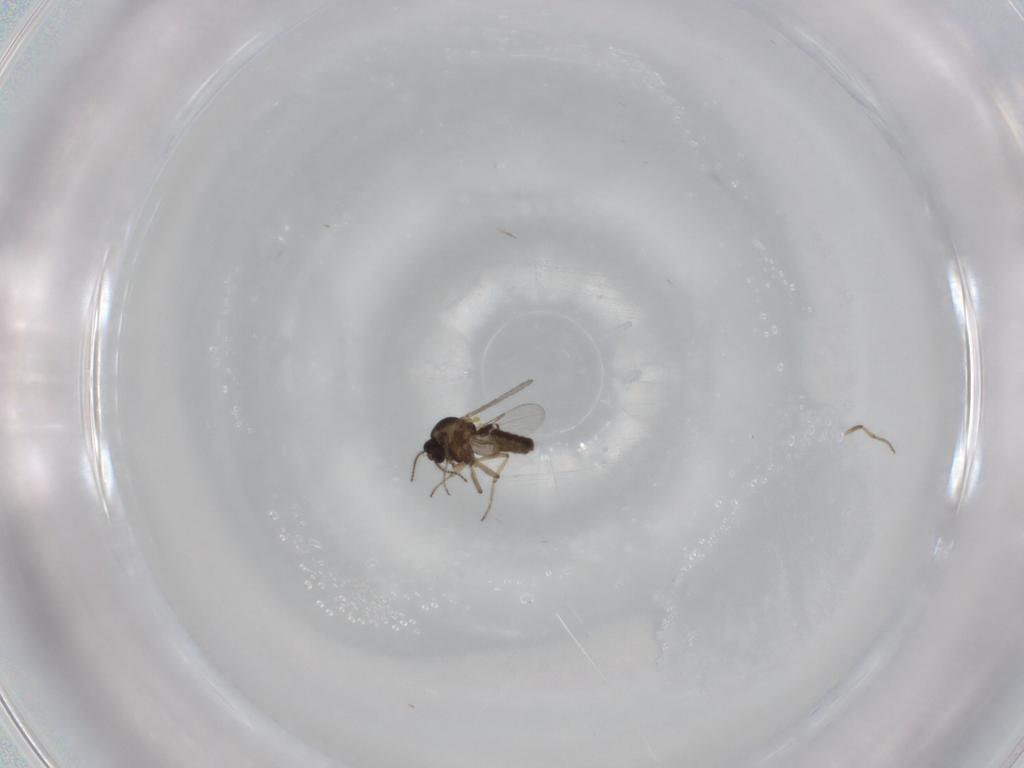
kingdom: Animalia
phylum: Arthropoda
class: Insecta
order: Diptera
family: Ceratopogonidae
